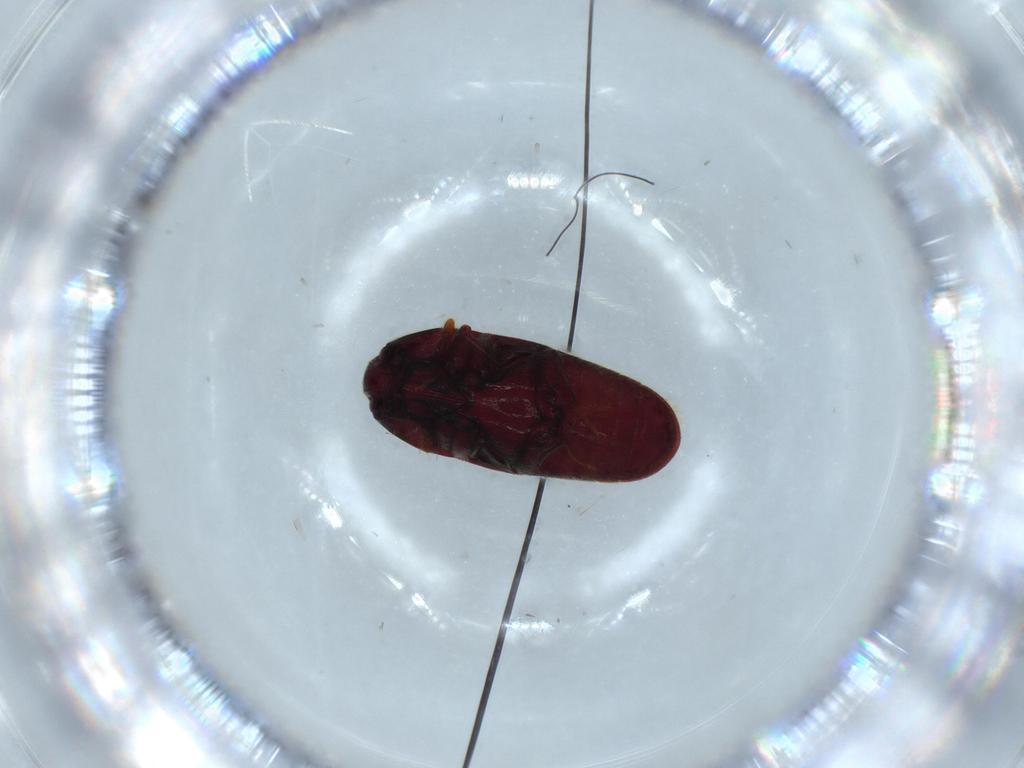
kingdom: Animalia
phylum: Arthropoda
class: Insecta
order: Coleoptera
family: Throscidae
